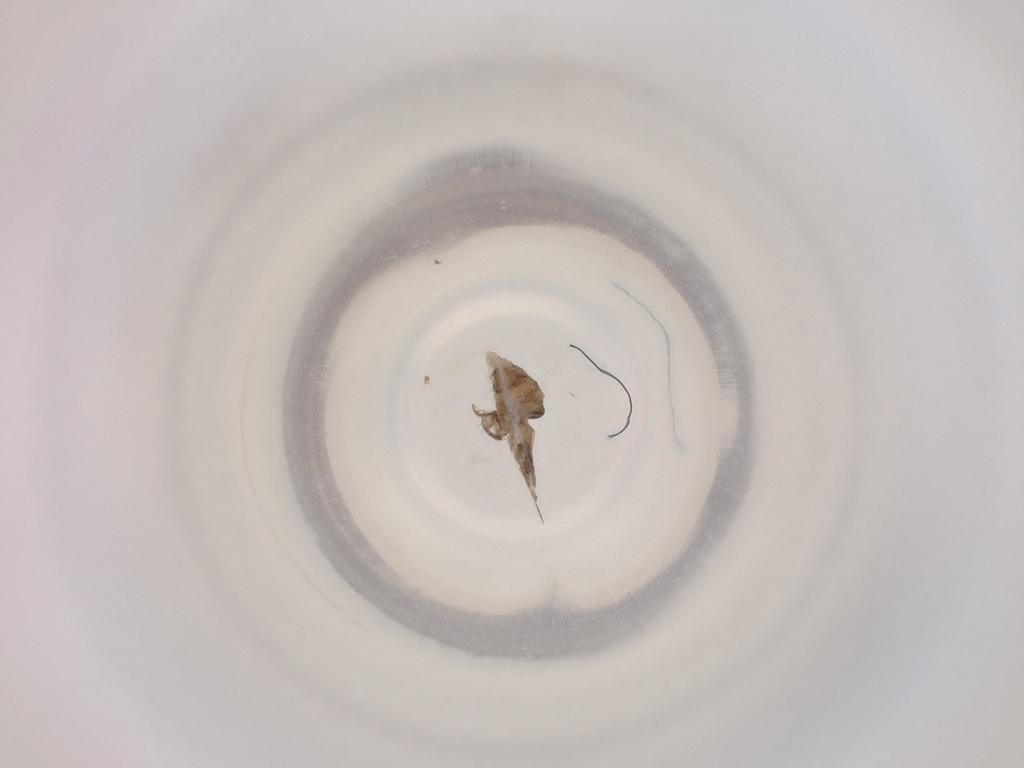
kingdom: Animalia
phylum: Arthropoda
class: Insecta
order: Diptera
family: Cecidomyiidae
